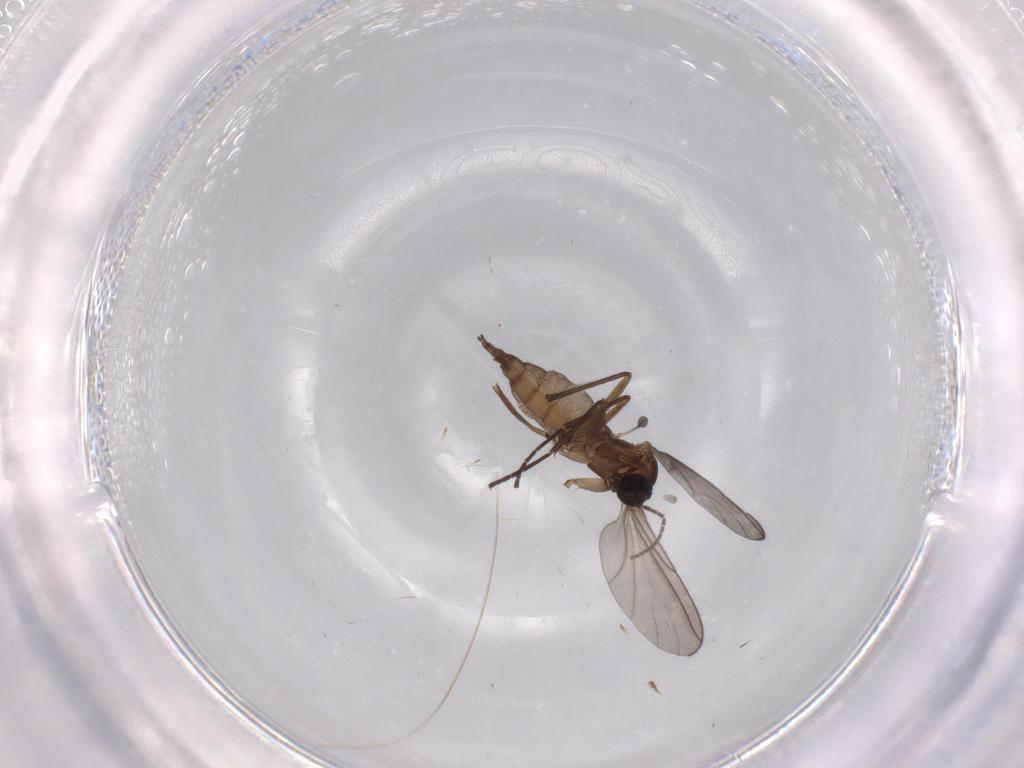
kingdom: Animalia
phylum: Arthropoda
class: Insecta
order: Diptera
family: Sciaridae
